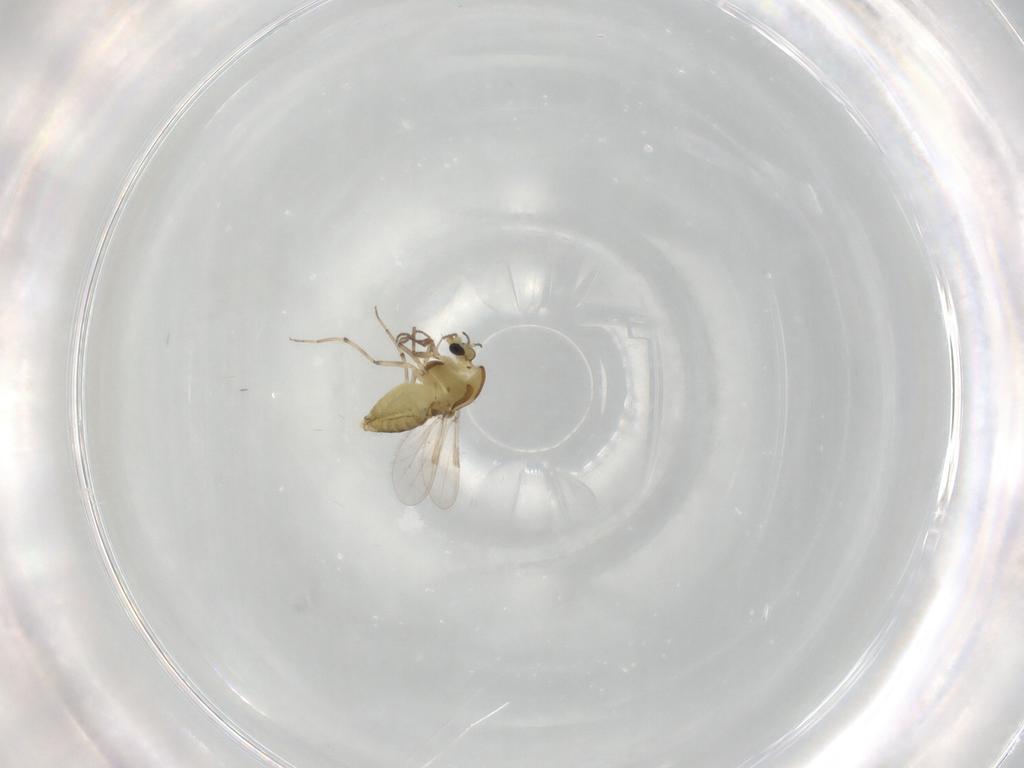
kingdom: Animalia
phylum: Arthropoda
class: Insecta
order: Diptera
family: Chironomidae
